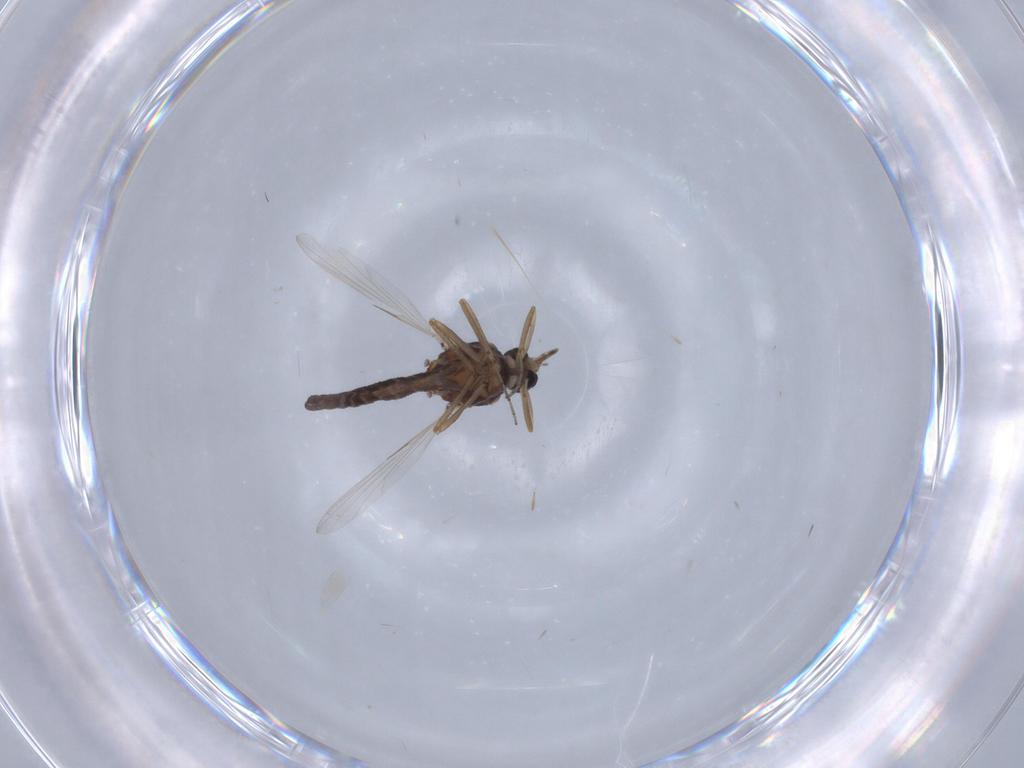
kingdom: Animalia
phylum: Arthropoda
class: Insecta
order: Diptera
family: Ceratopogonidae
